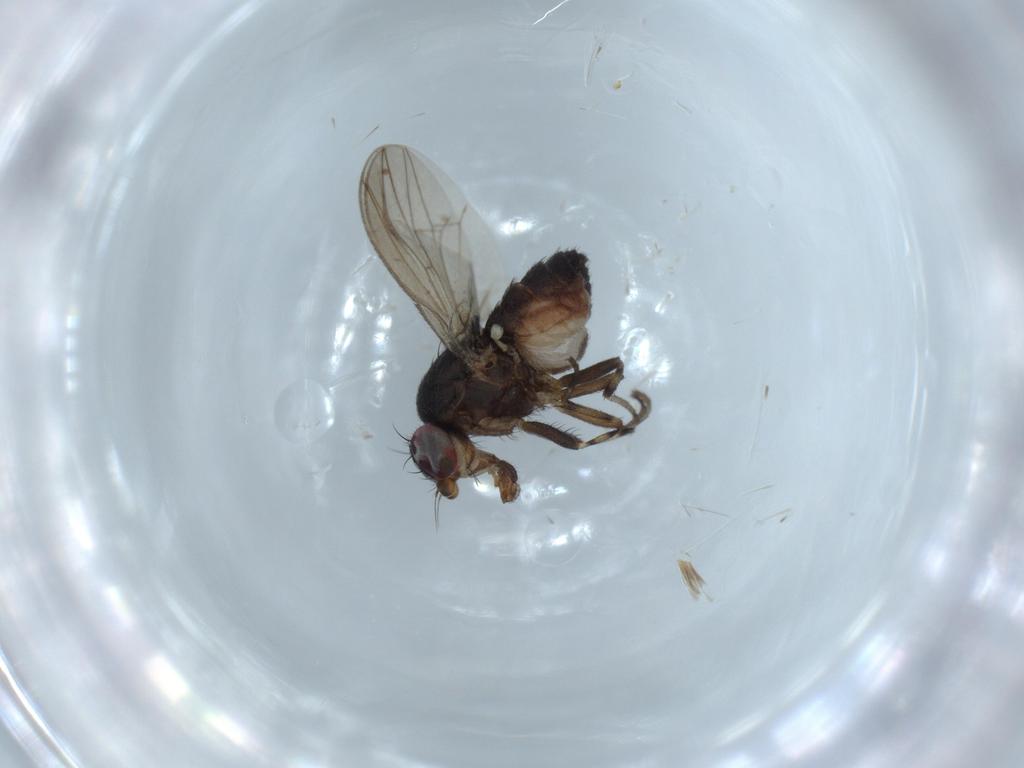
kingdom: Animalia
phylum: Arthropoda
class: Insecta
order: Diptera
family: Heleomyzidae
